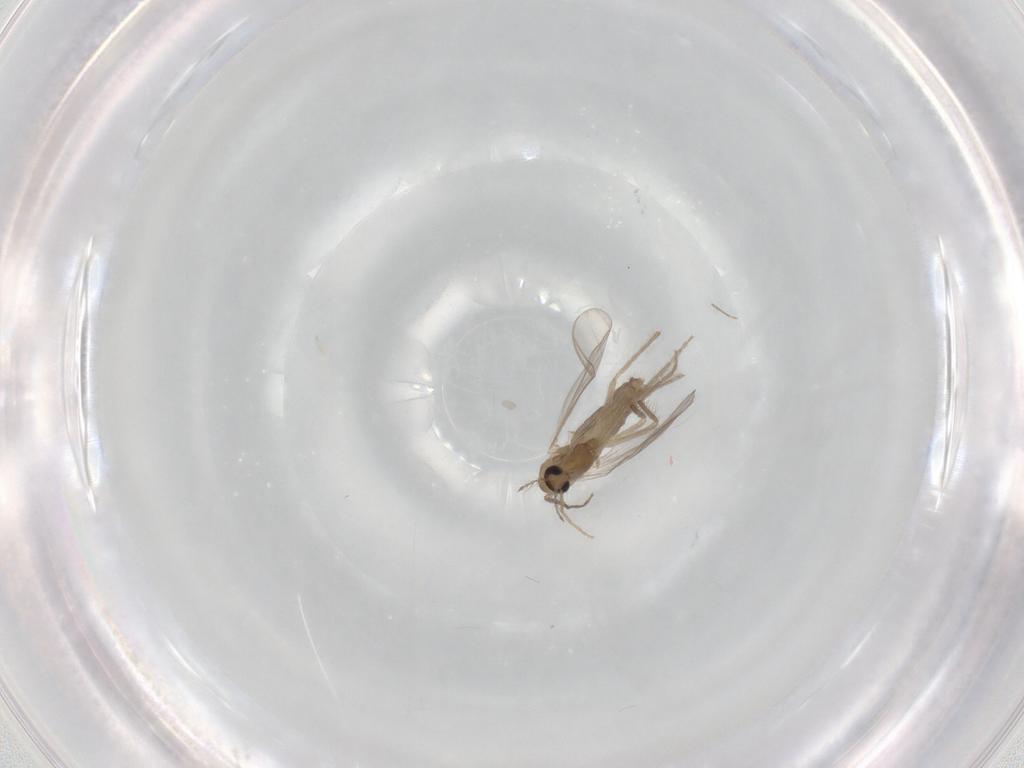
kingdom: Animalia
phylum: Arthropoda
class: Insecta
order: Diptera
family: Chironomidae
